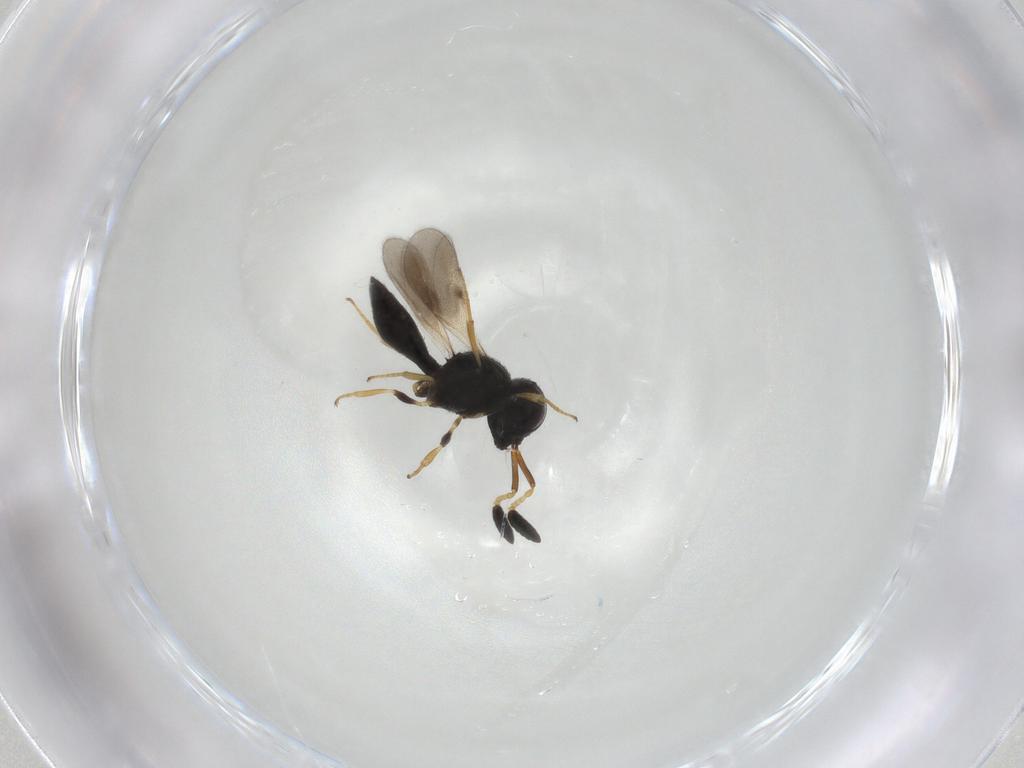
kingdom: Animalia
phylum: Arthropoda
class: Insecta
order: Hymenoptera
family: Scelionidae
